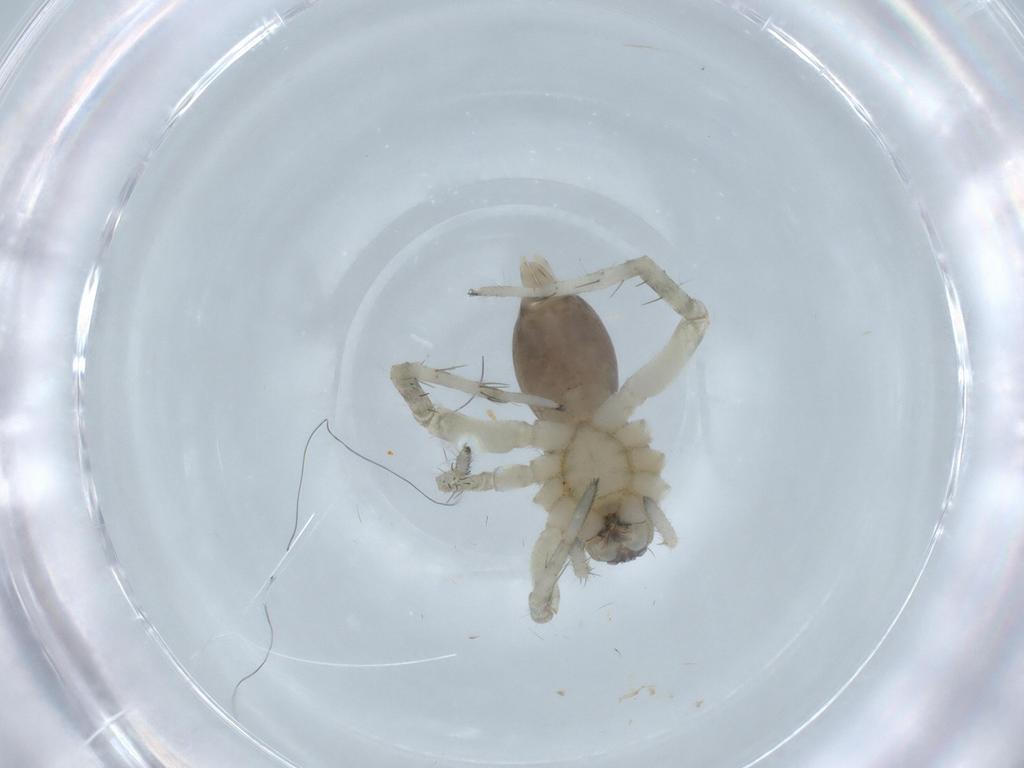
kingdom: Animalia
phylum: Arthropoda
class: Arachnida
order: Araneae
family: Anyphaenidae
